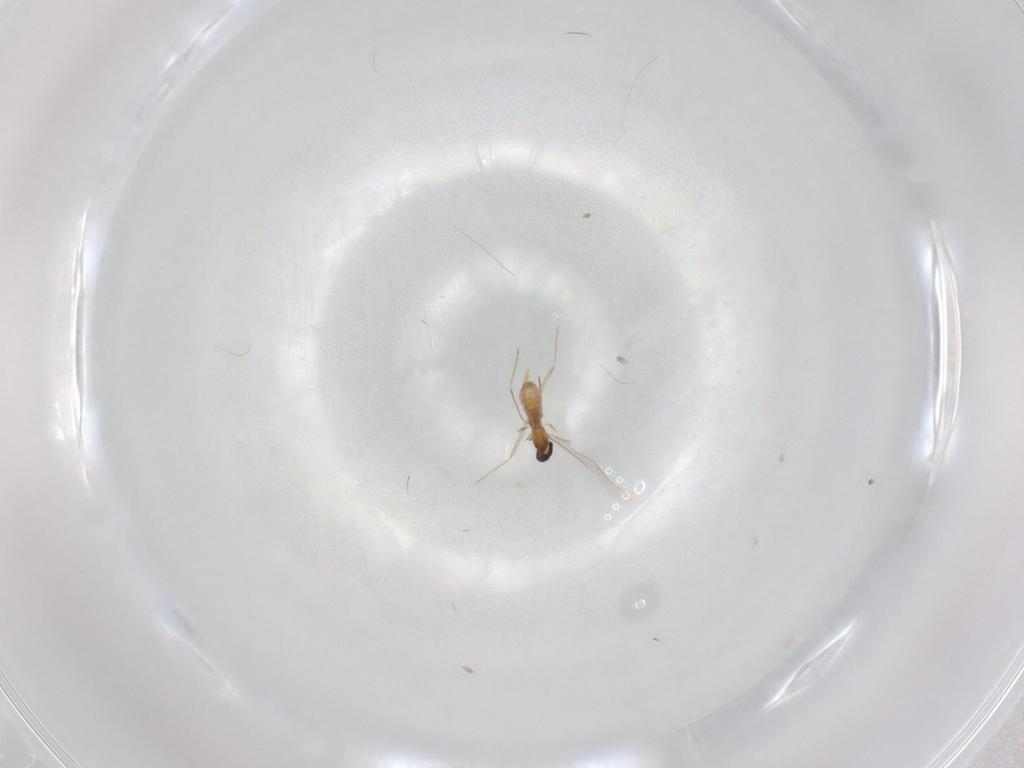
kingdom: Animalia
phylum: Arthropoda
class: Insecta
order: Diptera
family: Cecidomyiidae
